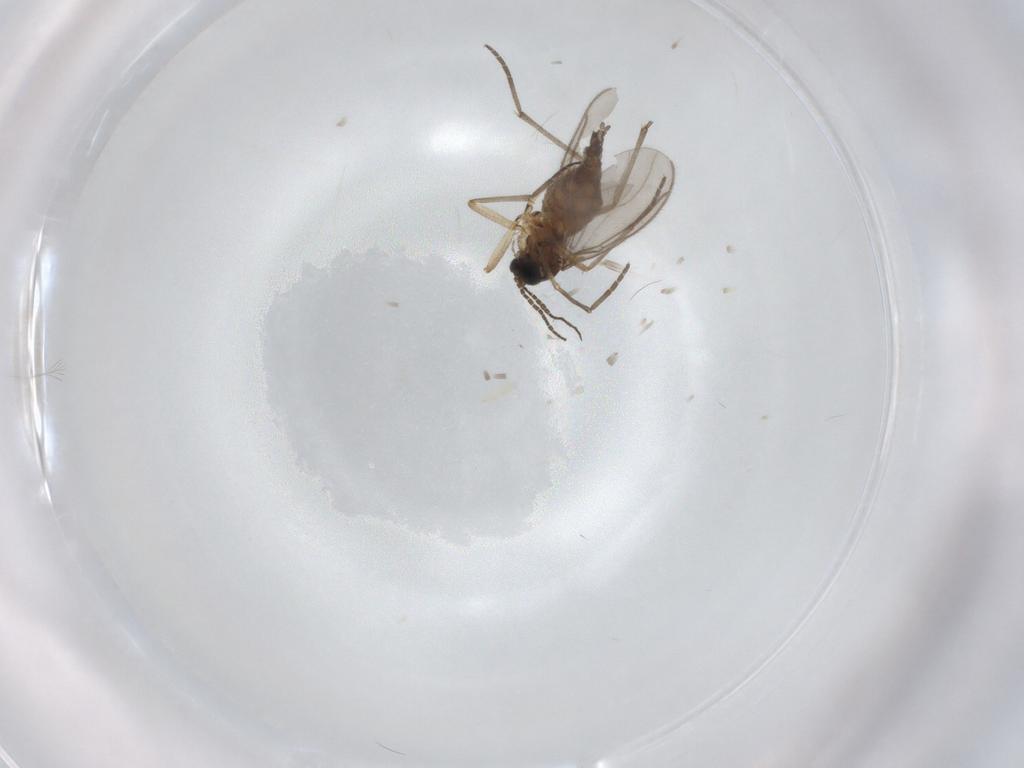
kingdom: Animalia
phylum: Arthropoda
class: Insecta
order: Diptera
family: Sciaridae
